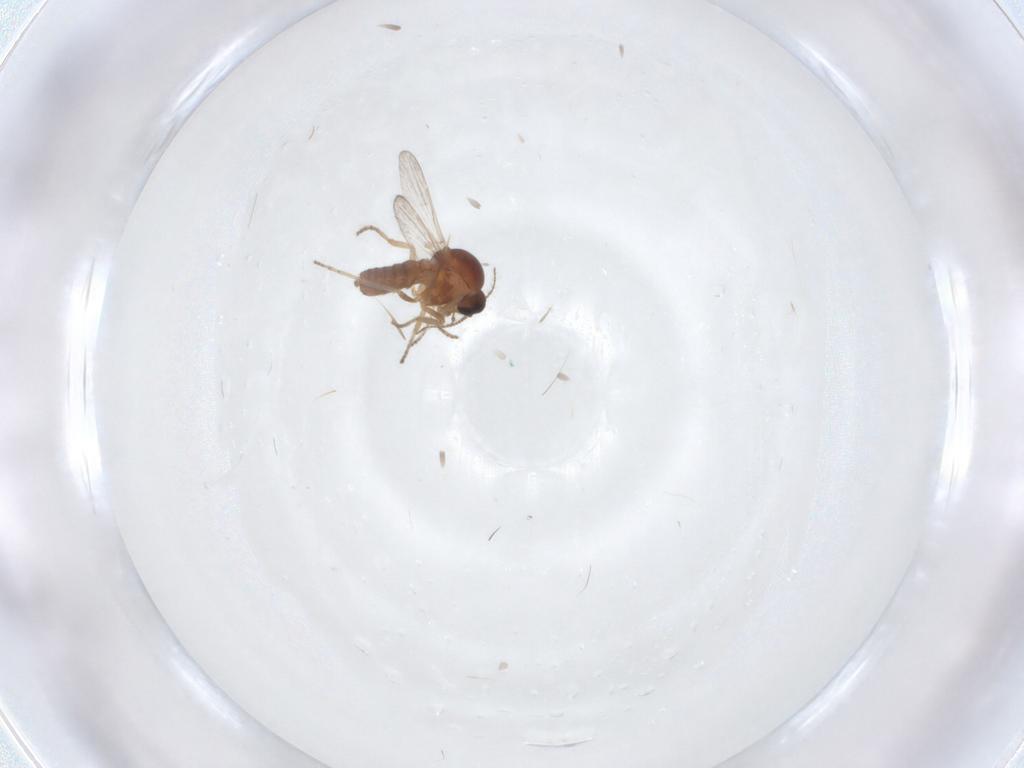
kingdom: Animalia
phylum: Arthropoda
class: Insecta
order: Diptera
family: Ceratopogonidae
